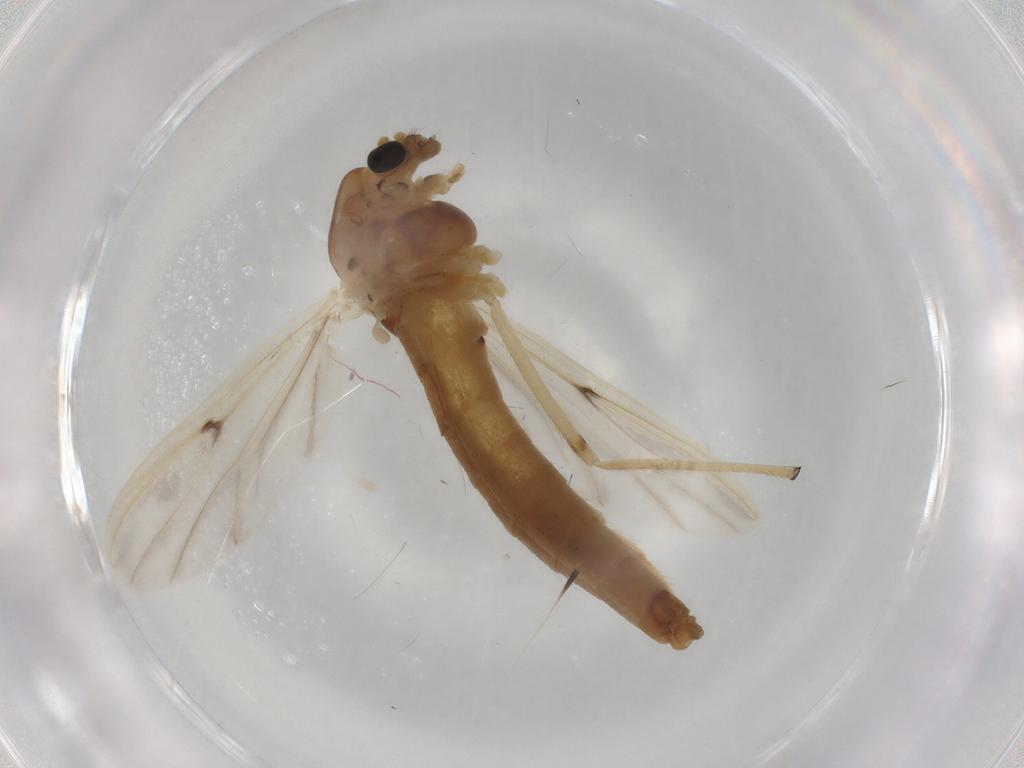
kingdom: Animalia
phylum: Arthropoda
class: Insecta
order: Diptera
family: Chironomidae
